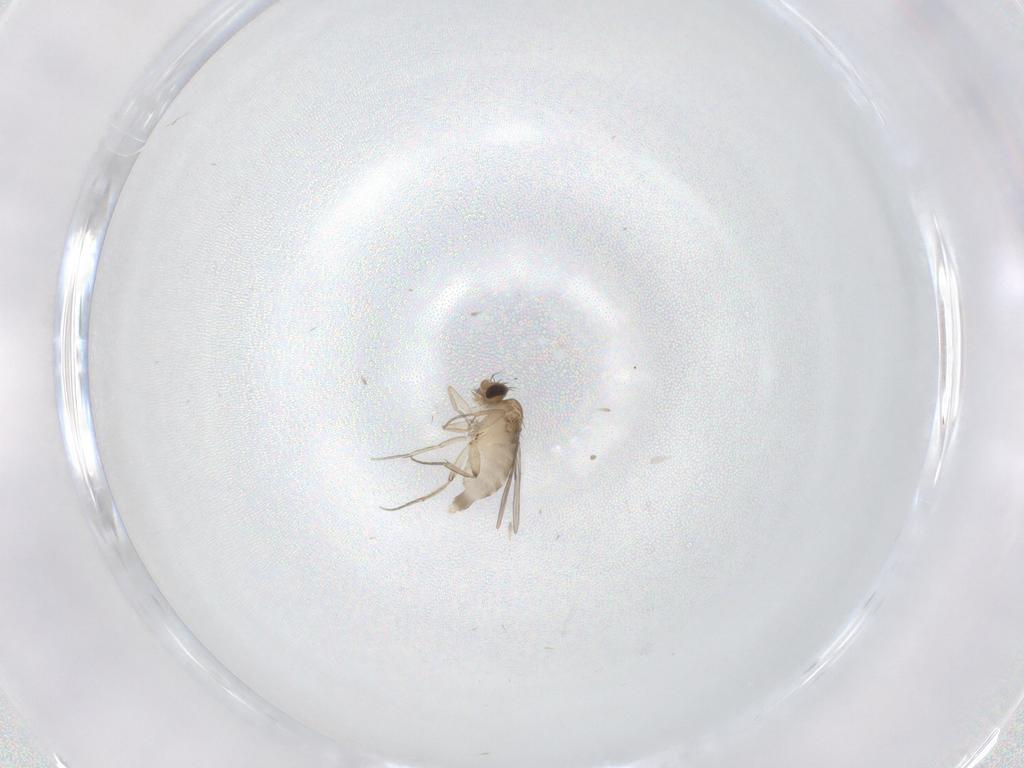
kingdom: Animalia
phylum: Arthropoda
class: Insecta
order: Diptera
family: Phoridae
